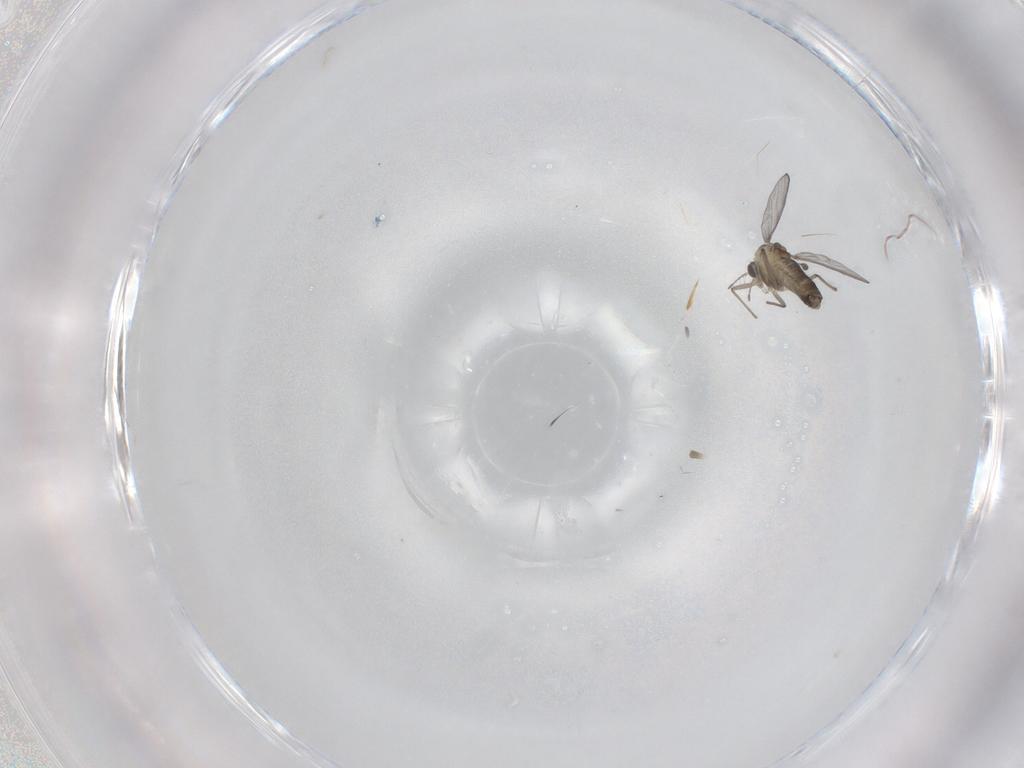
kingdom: Animalia
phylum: Arthropoda
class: Insecta
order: Diptera
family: Chironomidae
